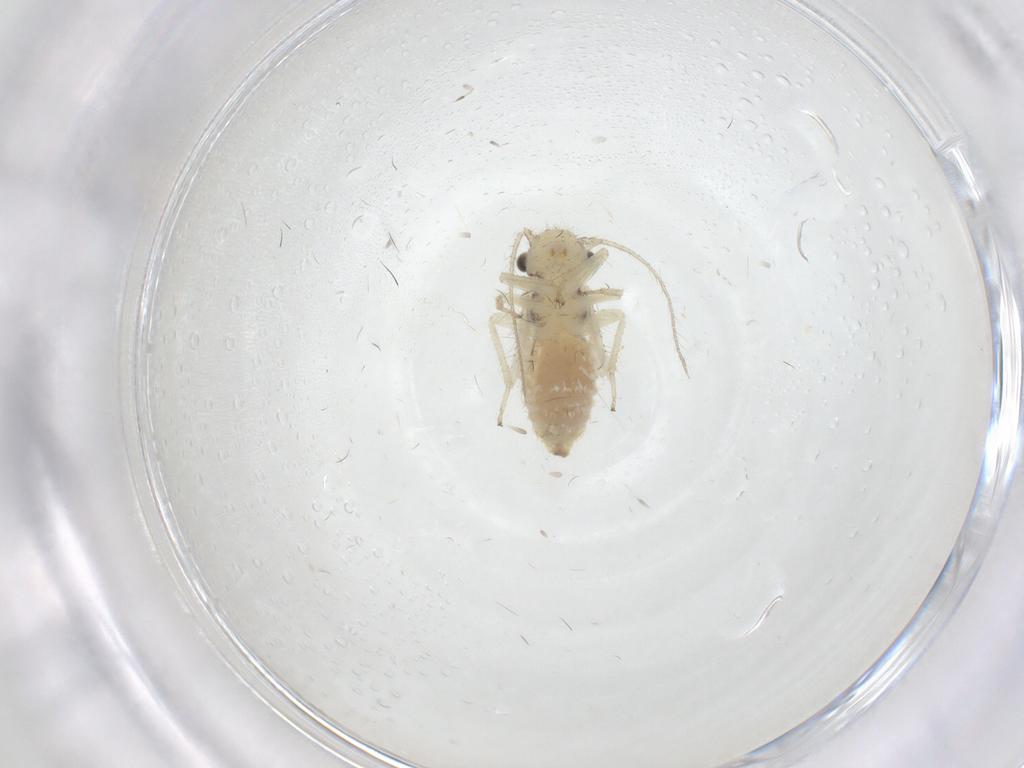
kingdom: Animalia
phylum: Arthropoda
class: Insecta
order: Psocodea
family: Pseudocaeciliidae
